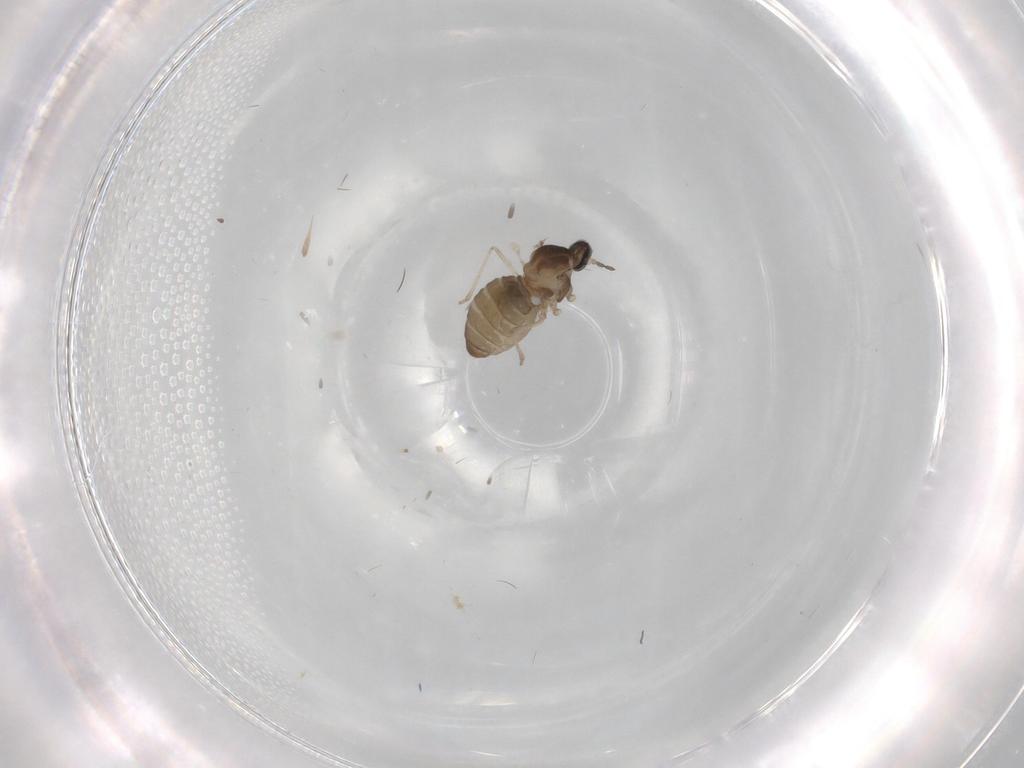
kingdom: Animalia
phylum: Arthropoda
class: Insecta
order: Diptera
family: Cecidomyiidae
